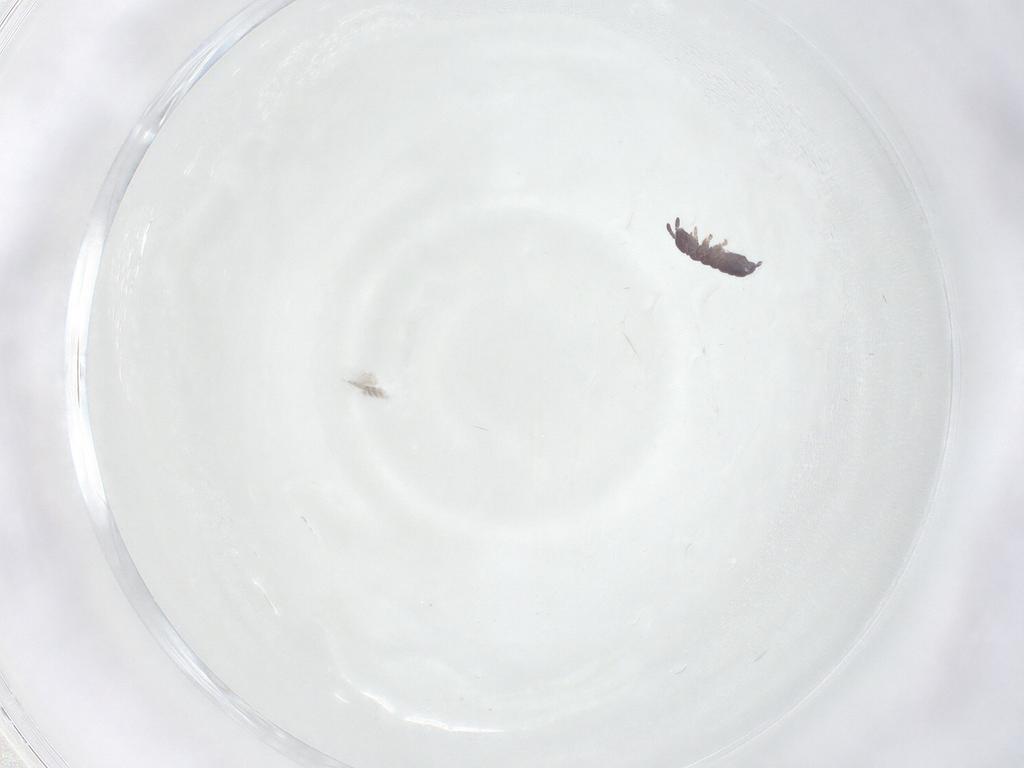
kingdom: Animalia
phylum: Arthropoda
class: Collembola
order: Poduromorpha
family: Hypogastruridae
